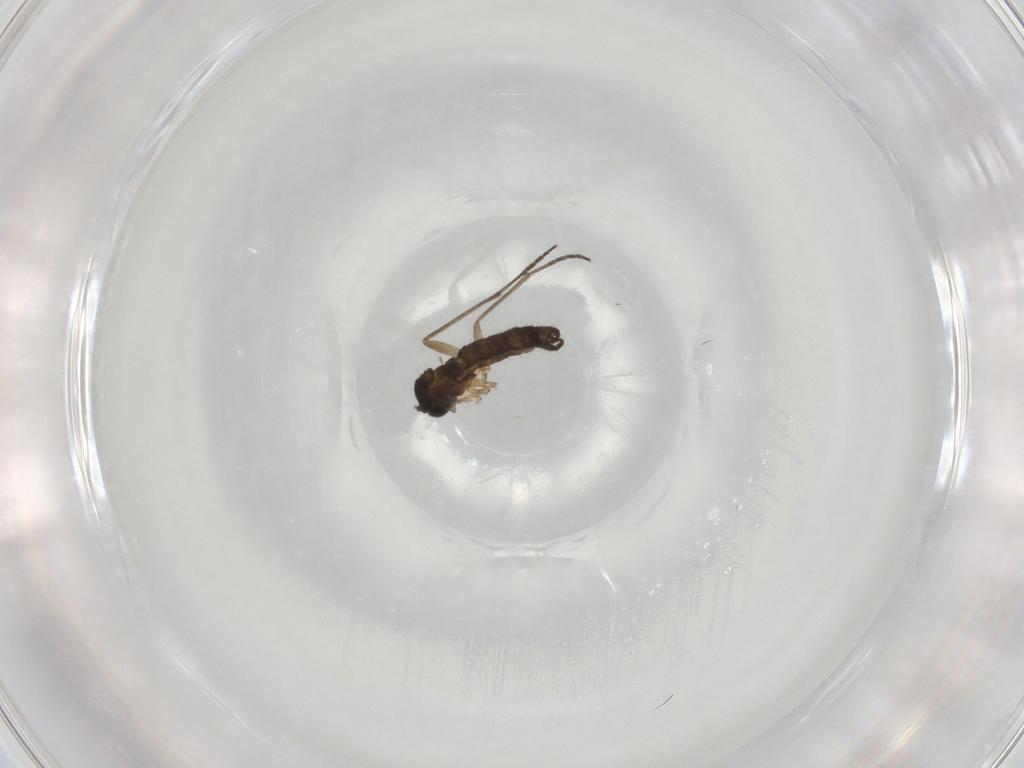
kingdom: Animalia
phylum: Arthropoda
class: Insecta
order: Diptera
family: Sciaridae
